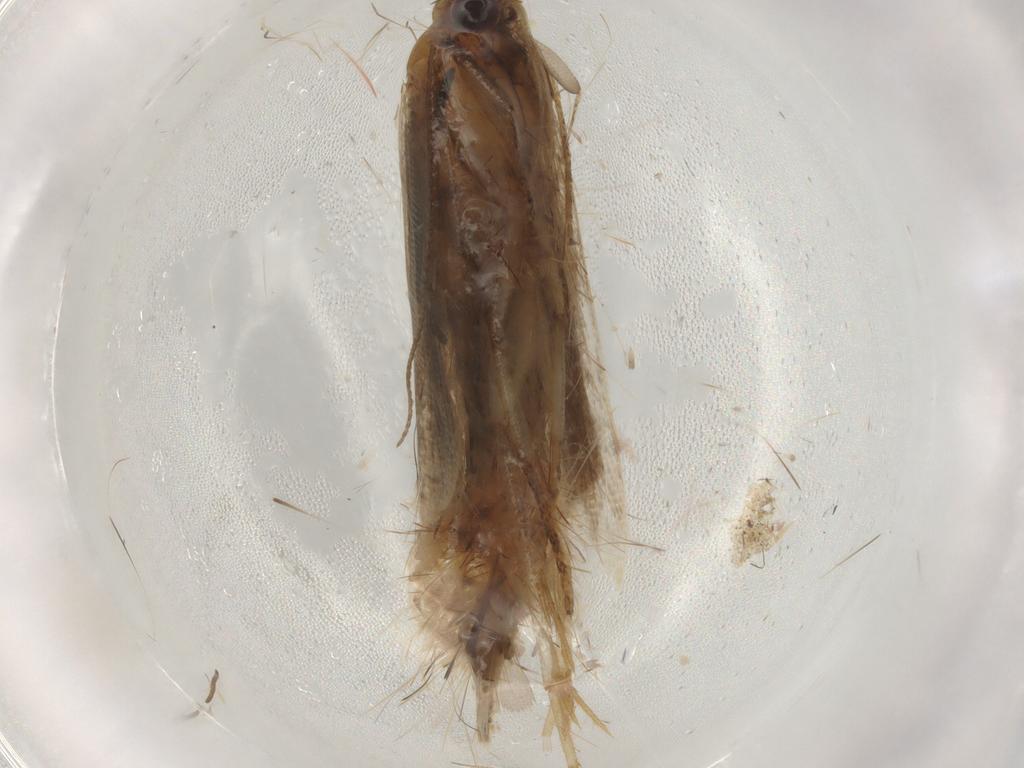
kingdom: Animalia
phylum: Arthropoda
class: Insecta
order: Lepidoptera
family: Gelechiidae
